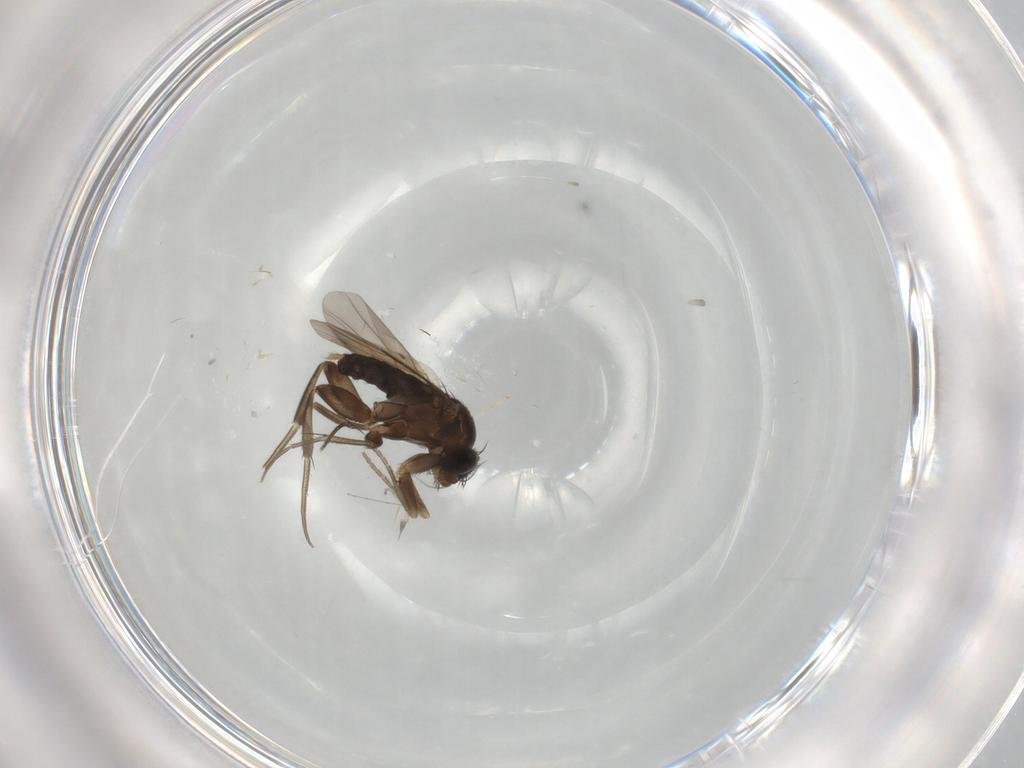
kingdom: Animalia
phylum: Arthropoda
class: Insecta
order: Diptera
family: Phoridae
